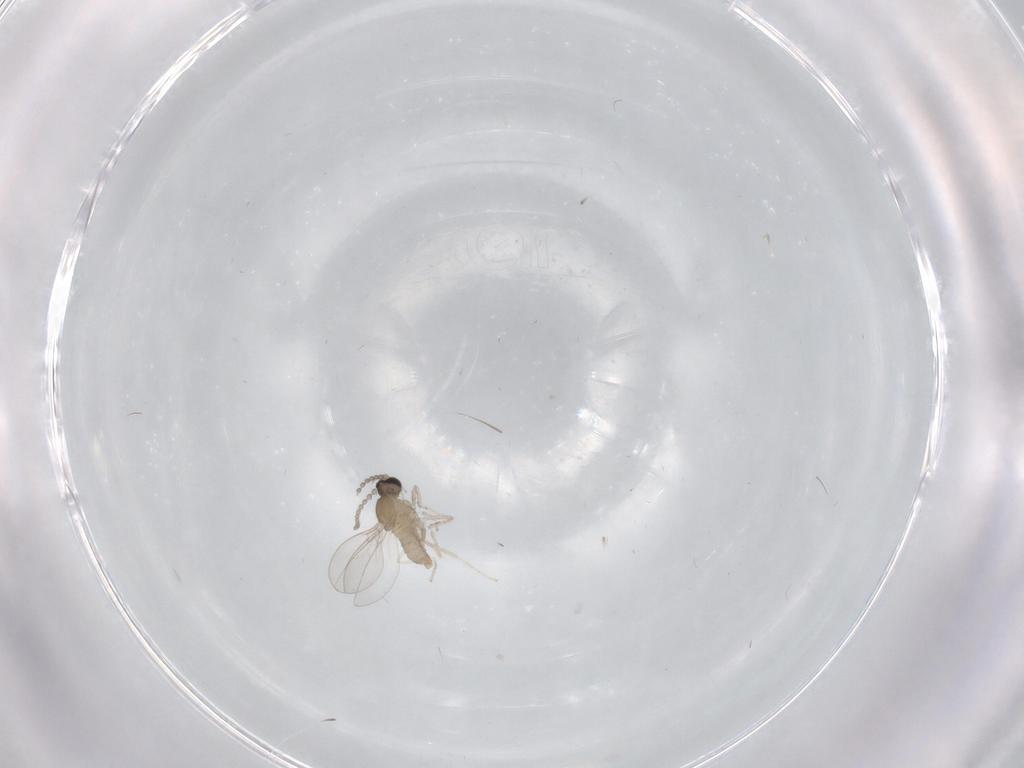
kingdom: Animalia
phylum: Arthropoda
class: Insecta
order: Diptera
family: Cecidomyiidae
